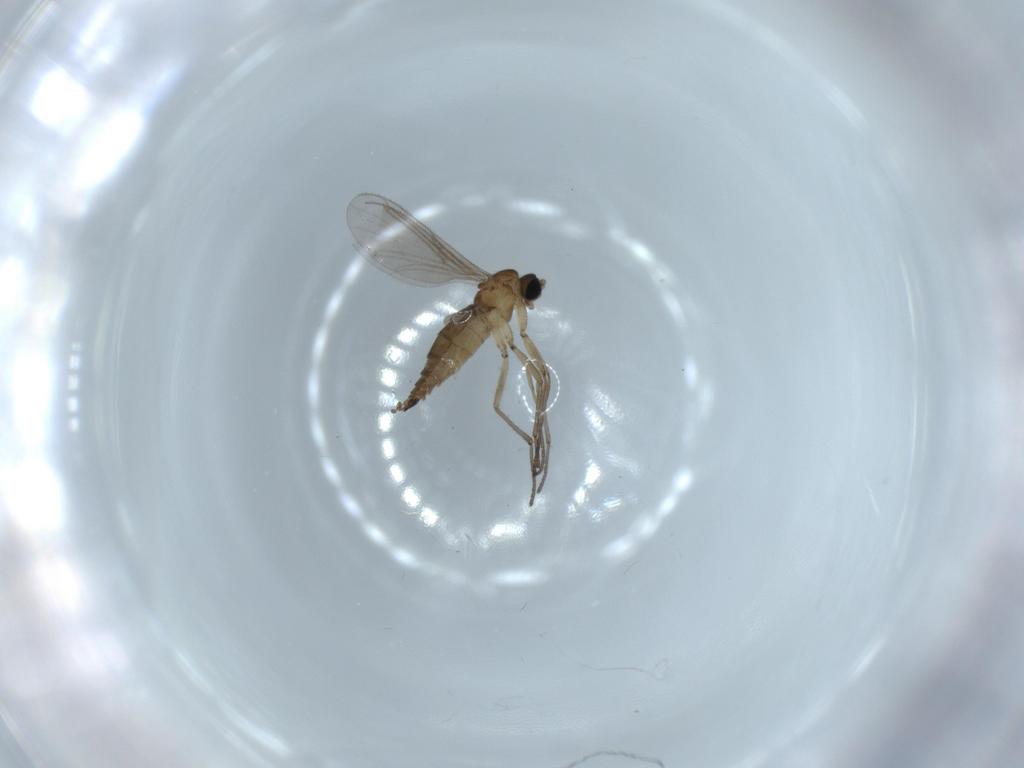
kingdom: Animalia
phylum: Arthropoda
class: Insecta
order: Diptera
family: Sciaridae
